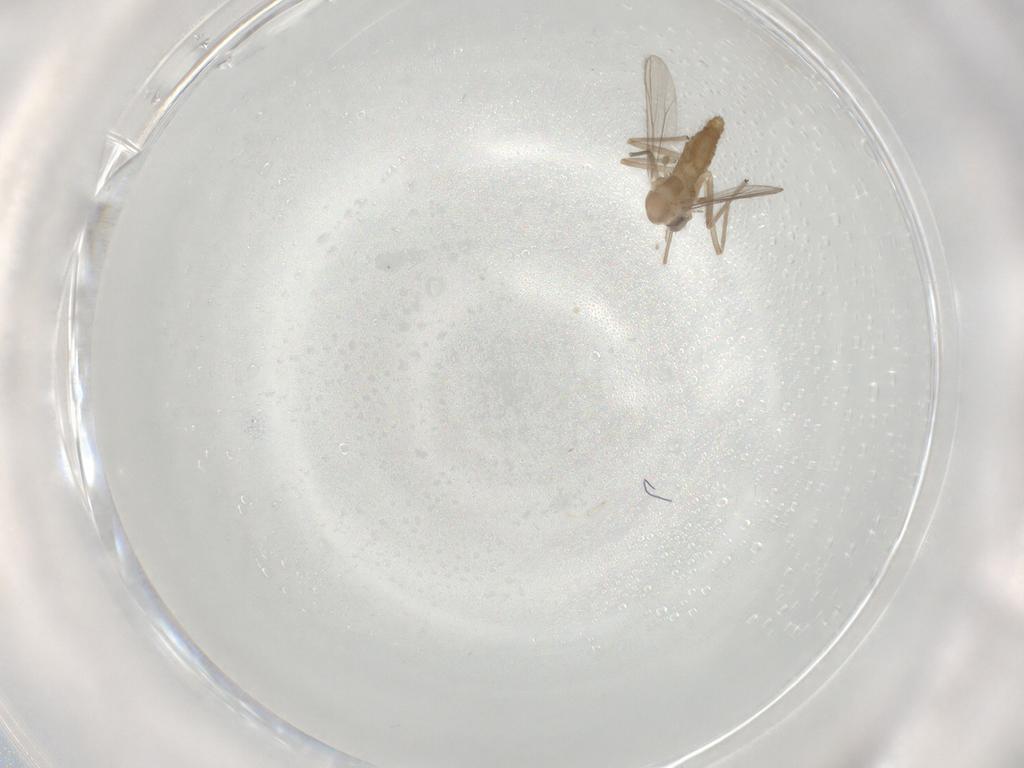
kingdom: Animalia
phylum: Arthropoda
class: Insecta
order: Diptera
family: Chironomidae
